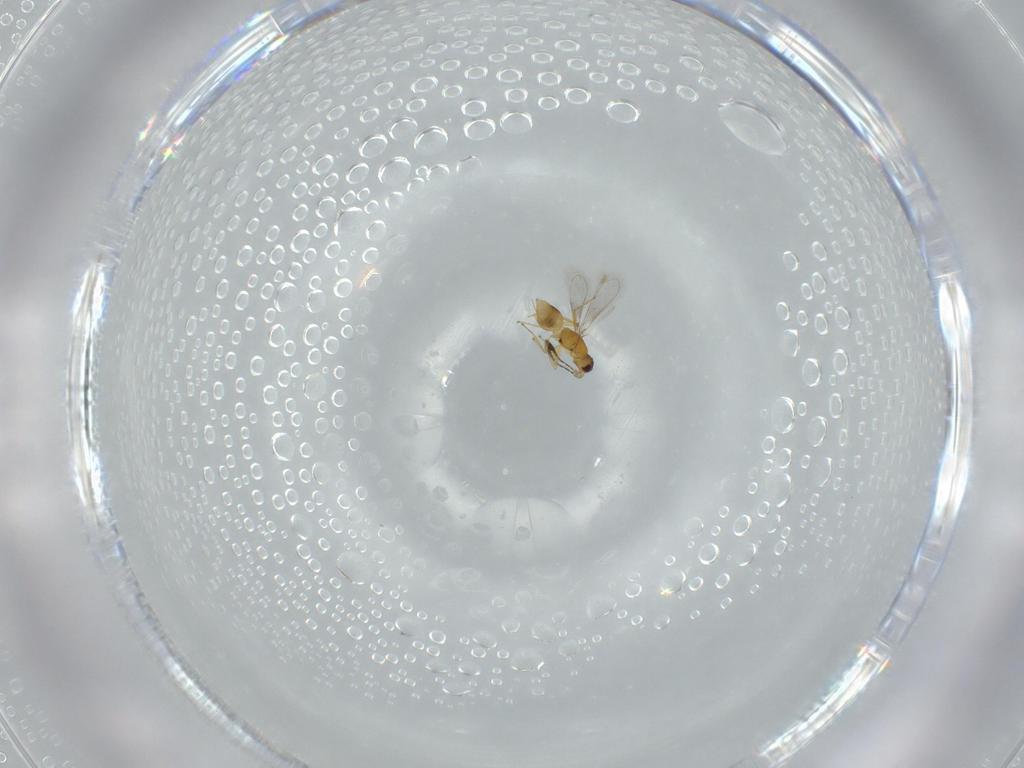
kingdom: Animalia
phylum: Arthropoda
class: Insecta
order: Hymenoptera
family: Mymaridae
